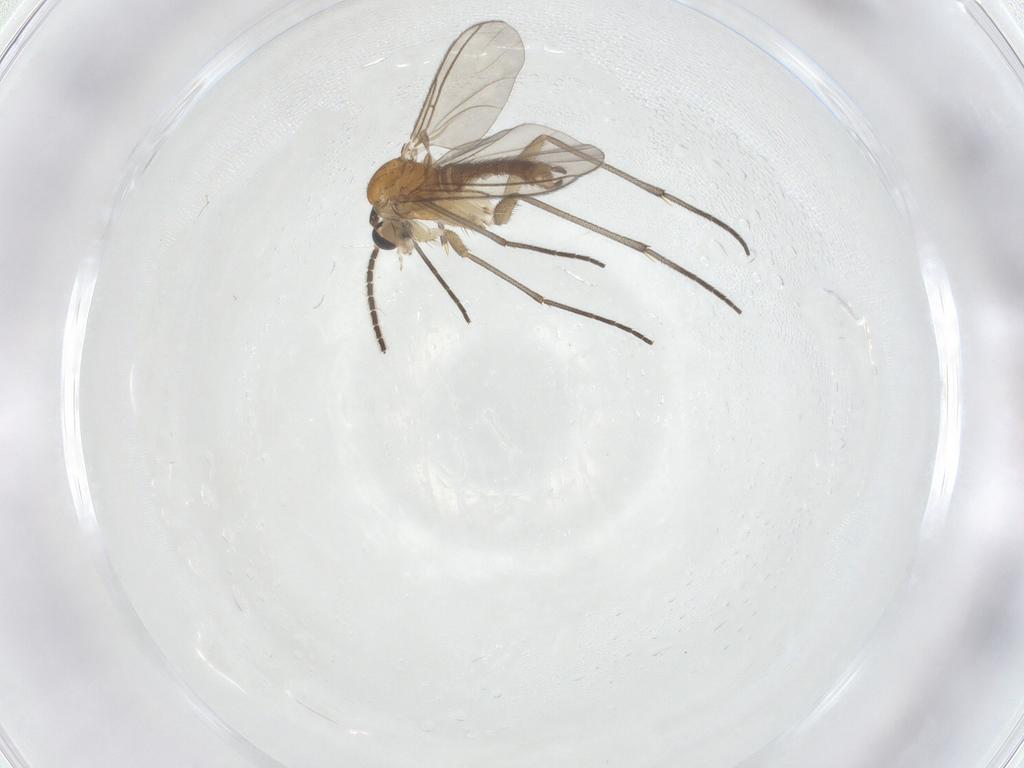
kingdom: Animalia
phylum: Arthropoda
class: Insecta
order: Diptera
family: Sciaridae
